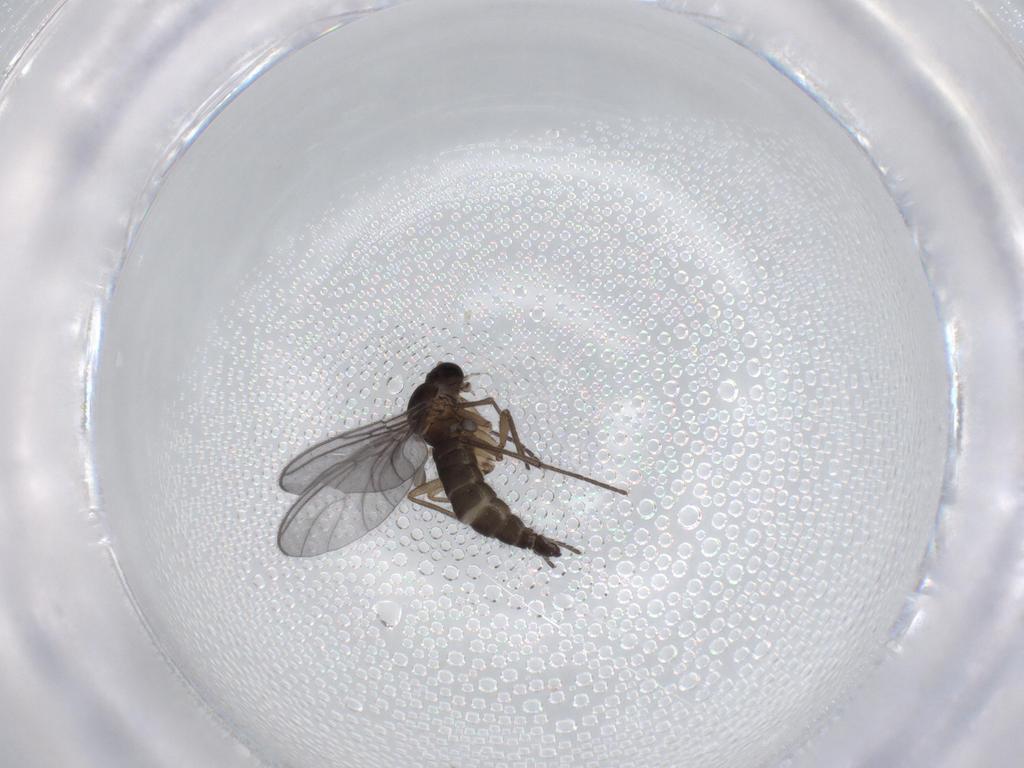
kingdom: Animalia
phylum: Arthropoda
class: Insecta
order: Diptera
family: Sciaridae
